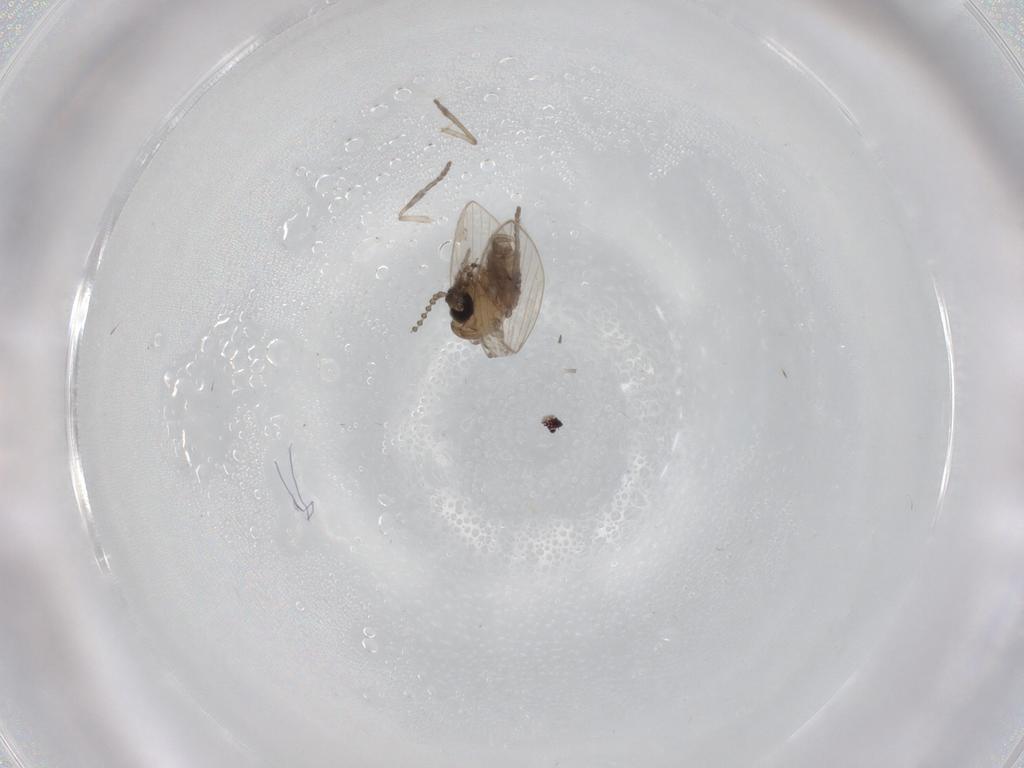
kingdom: Animalia
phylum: Arthropoda
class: Insecta
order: Diptera
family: Psychodidae
